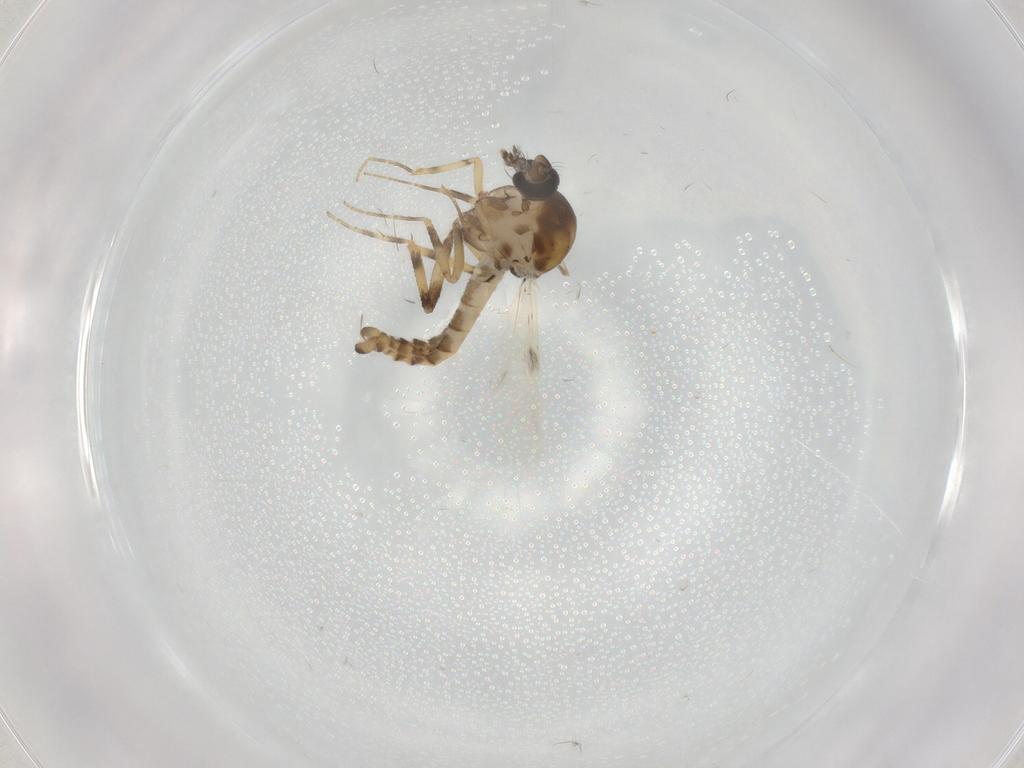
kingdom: Animalia
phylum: Arthropoda
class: Insecta
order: Diptera
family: Ceratopogonidae
